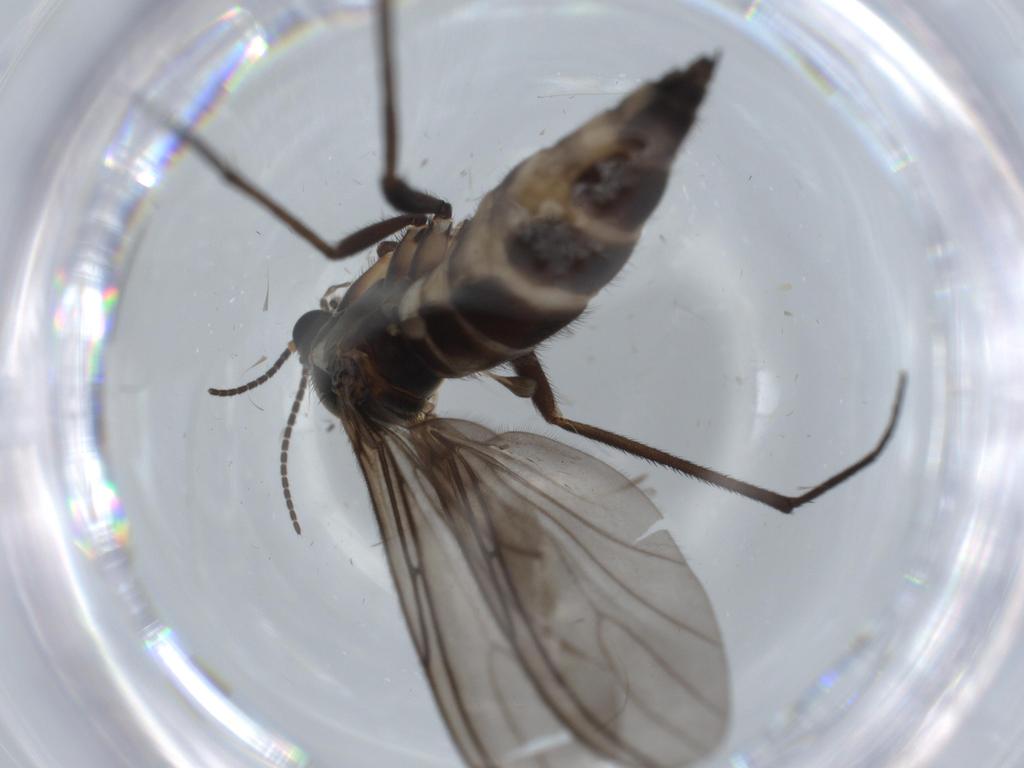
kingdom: Animalia
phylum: Arthropoda
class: Insecta
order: Diptera
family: Sciaridae
